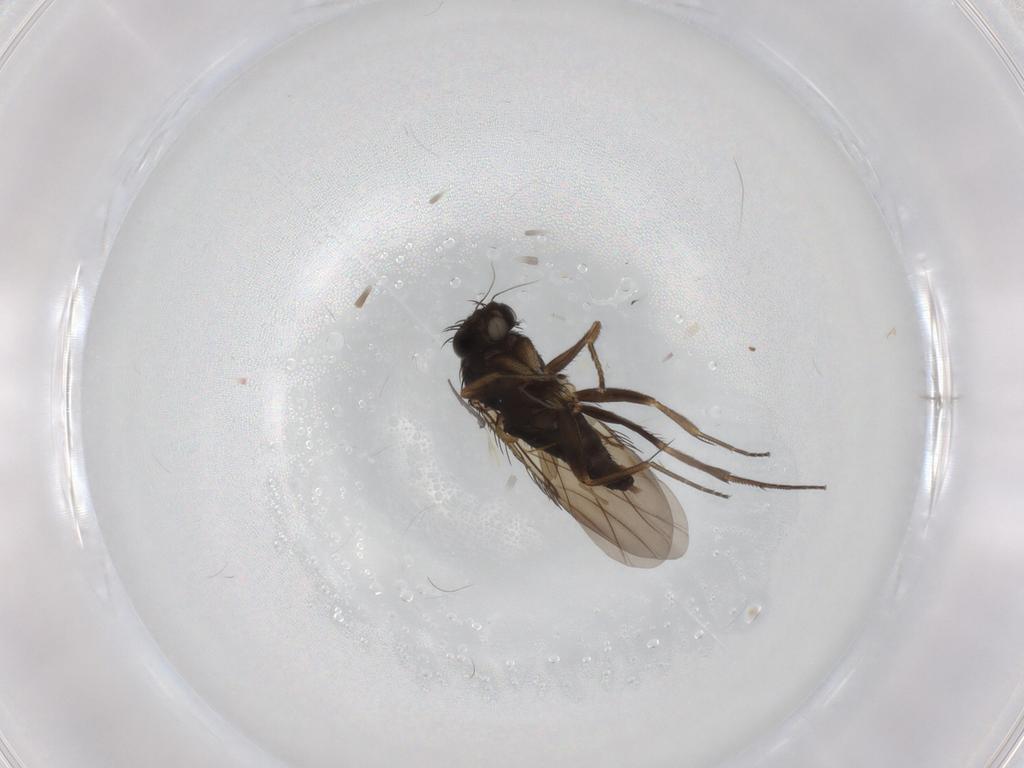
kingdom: Animalia
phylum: Arthropoda
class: Insecta
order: Diptera
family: Phoridae
